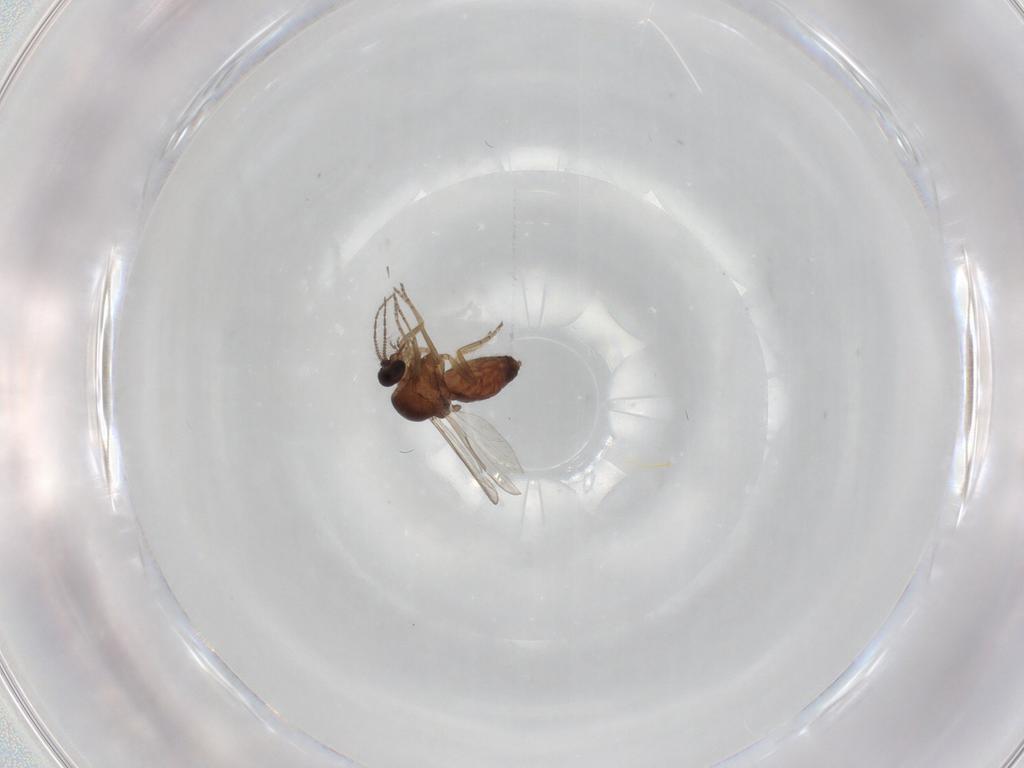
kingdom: Animalia
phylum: Arthropoda
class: Insecta
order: Diptera
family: Ceratopogonidae
